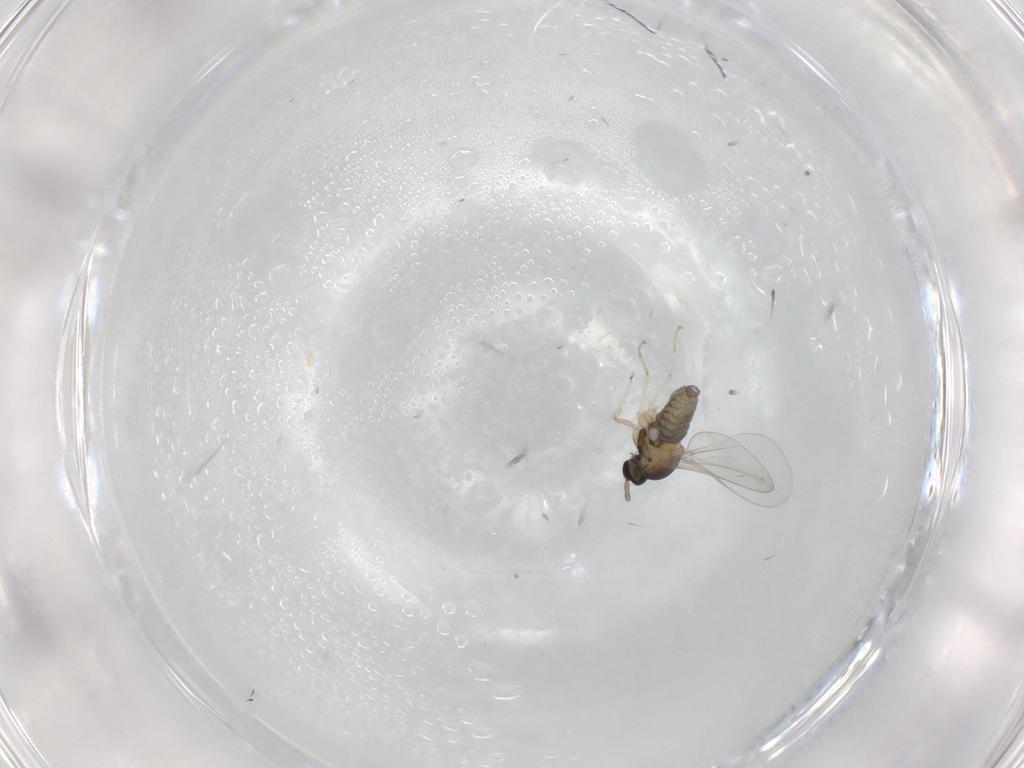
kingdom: Animalia
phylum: Arthropoda
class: Insecta
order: Diptera
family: Cecidomyiidae
